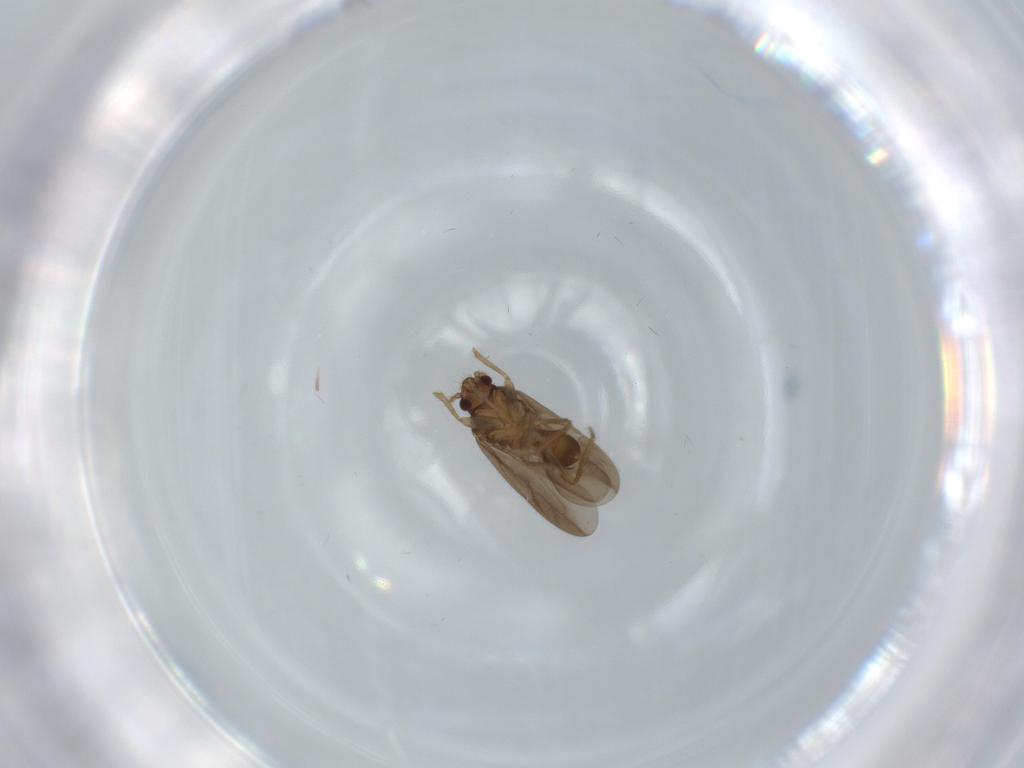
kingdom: Animalia
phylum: Arthropoda
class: Insecta
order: Hemiptera
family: Ceratocombidae
